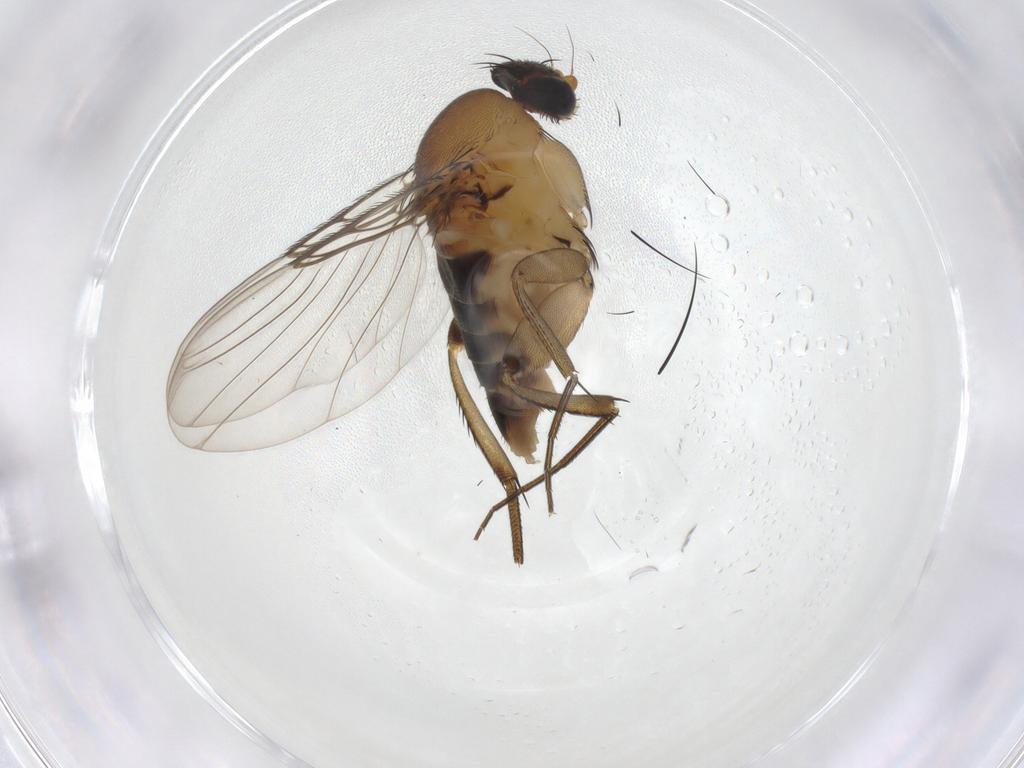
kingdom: Animalia
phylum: Arthropoda
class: Insecta
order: Diptera
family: Phoridae
